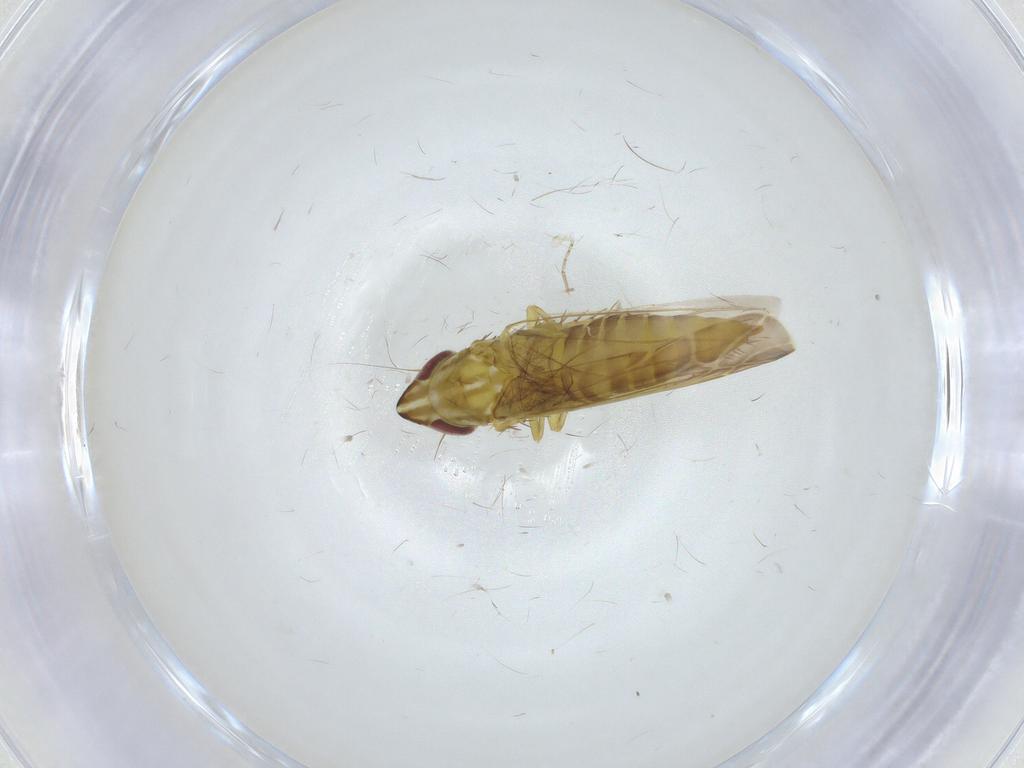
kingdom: Animalia
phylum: Arthropoda
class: Insecta
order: Hemiptera
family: Cicadellidae
